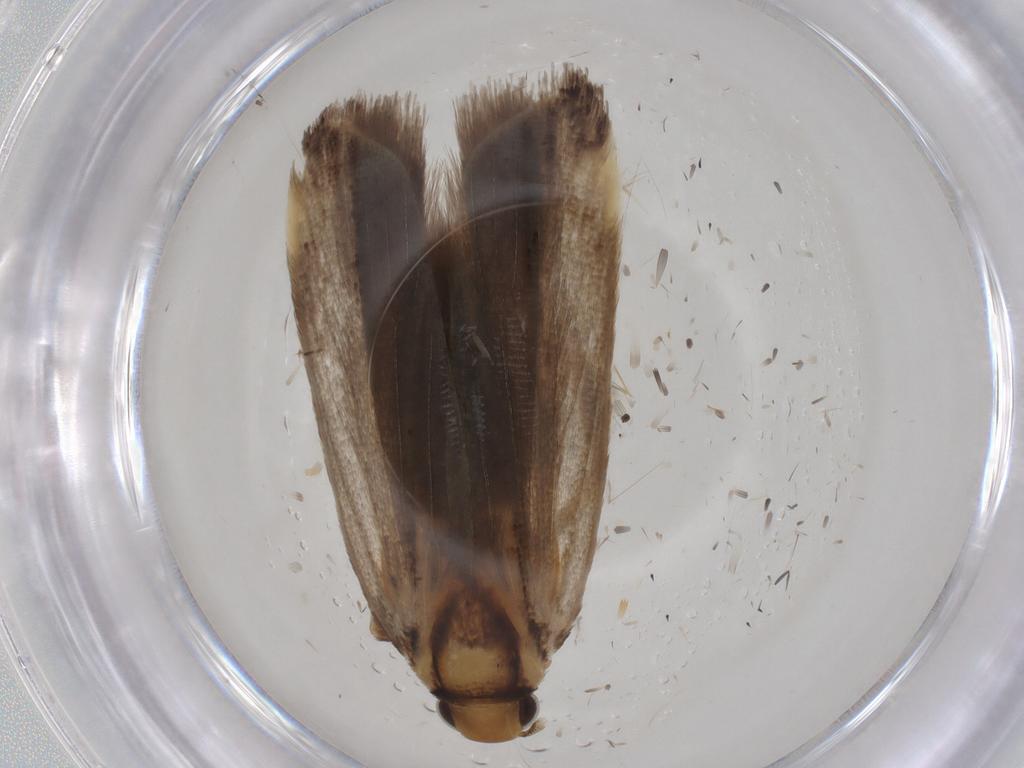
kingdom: Animalia
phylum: Arthropoda
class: Insecta
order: Lepidoptera
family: Gelechiidae
